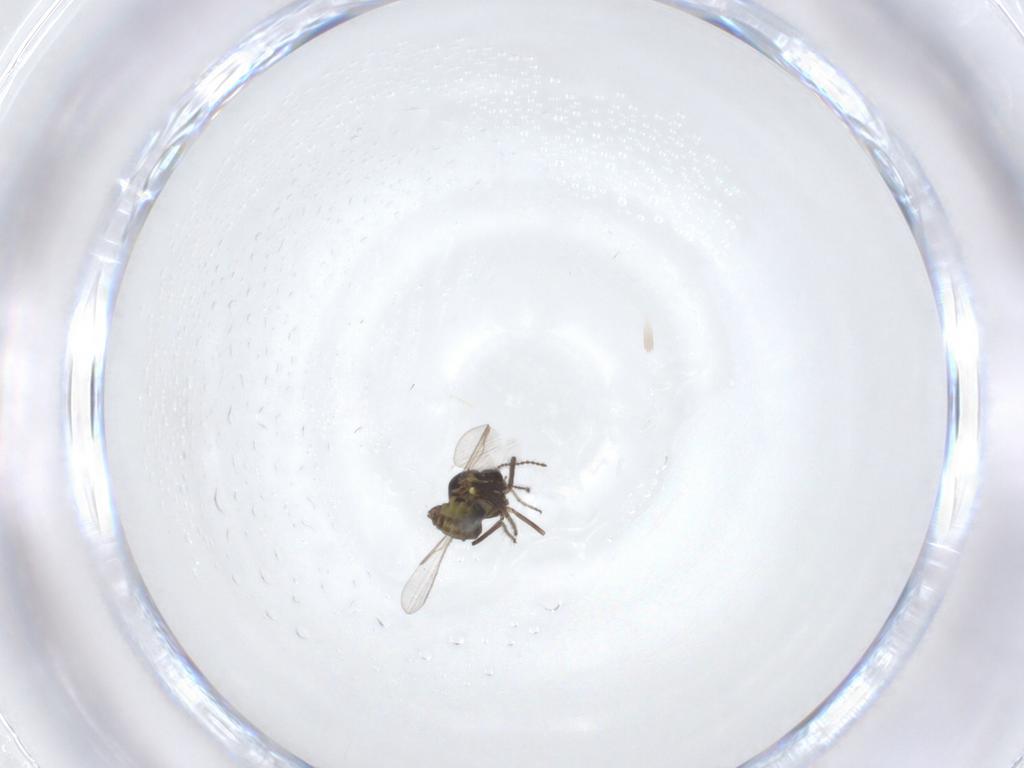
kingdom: Animalia
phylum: Arthropoda
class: Insecta
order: Diptera
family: Ceratopogonidae
